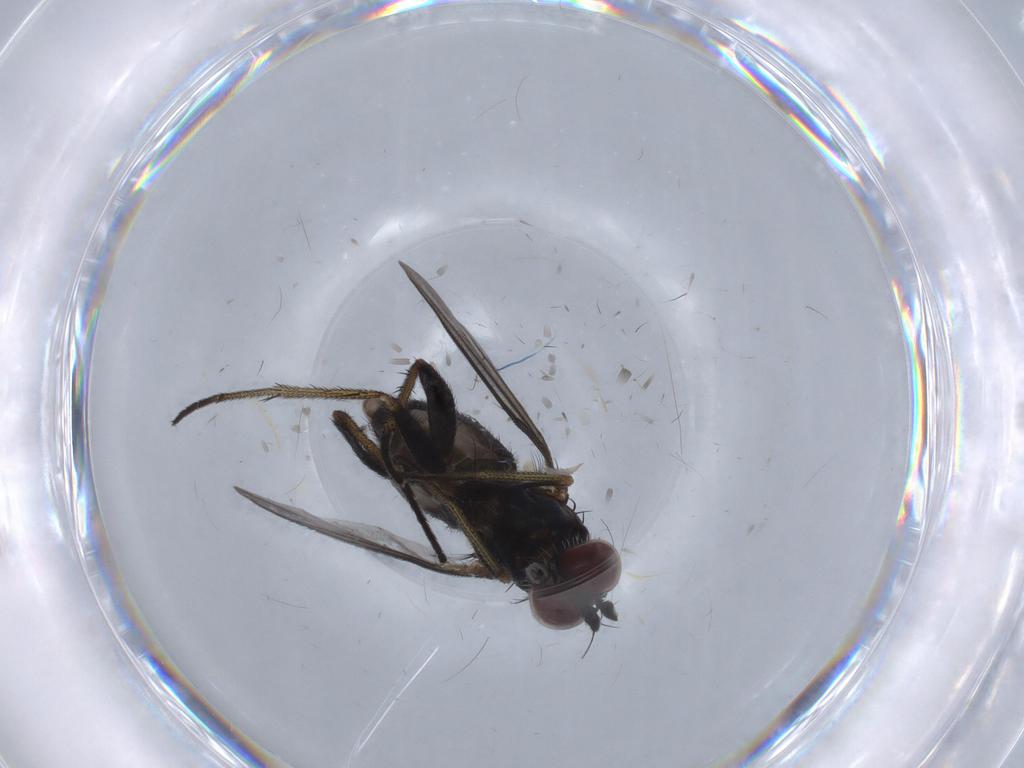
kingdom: Animalia
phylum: Arthropoda
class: Insecta
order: Diptera
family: Dolichopodidae
